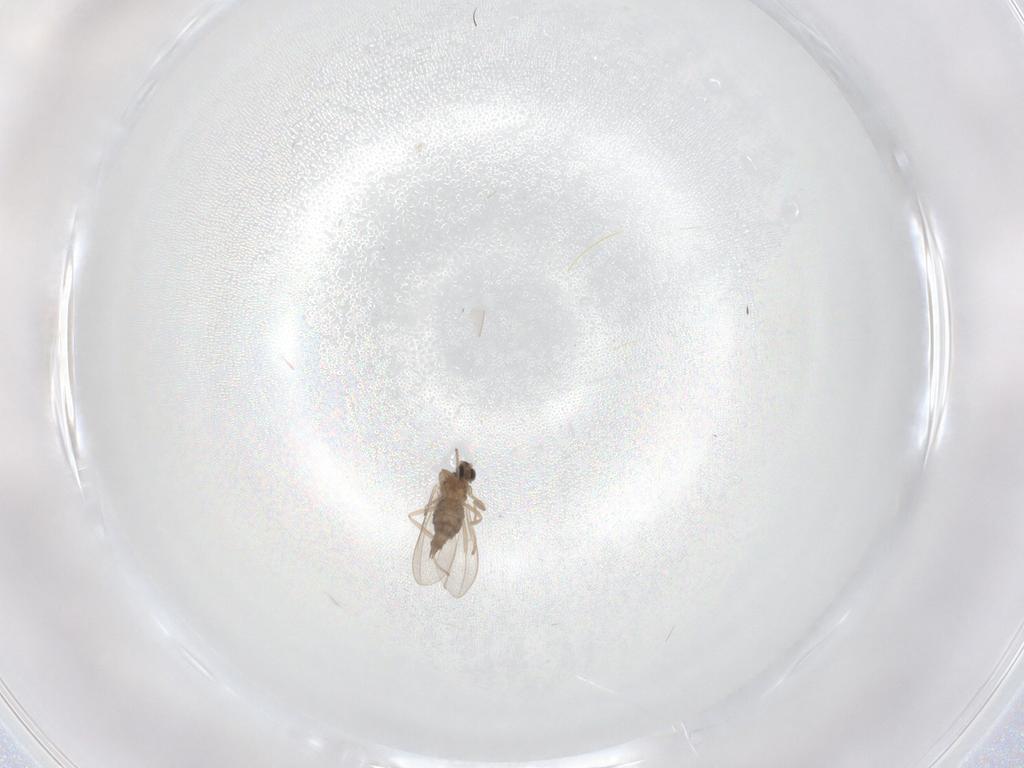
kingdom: Animalia
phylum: Arthropoda
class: Insecta
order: Diptera
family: Cecidomyiidae
